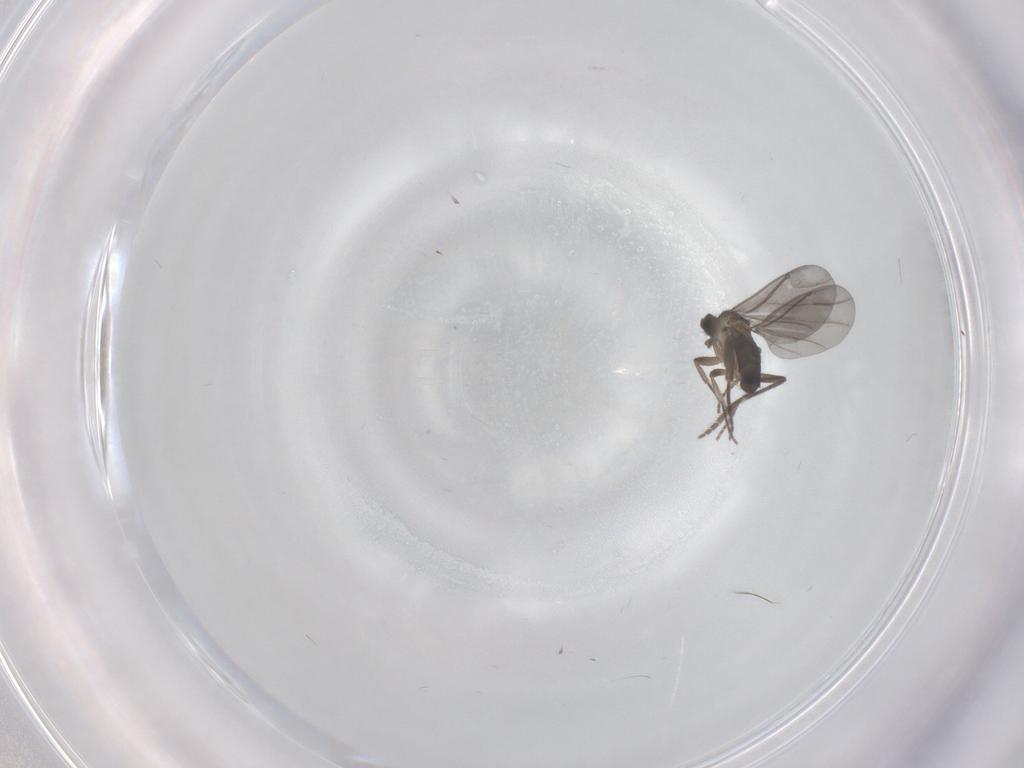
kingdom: Animalia
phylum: Arthropoda
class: Insecta
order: Diptera
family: Phoridae
